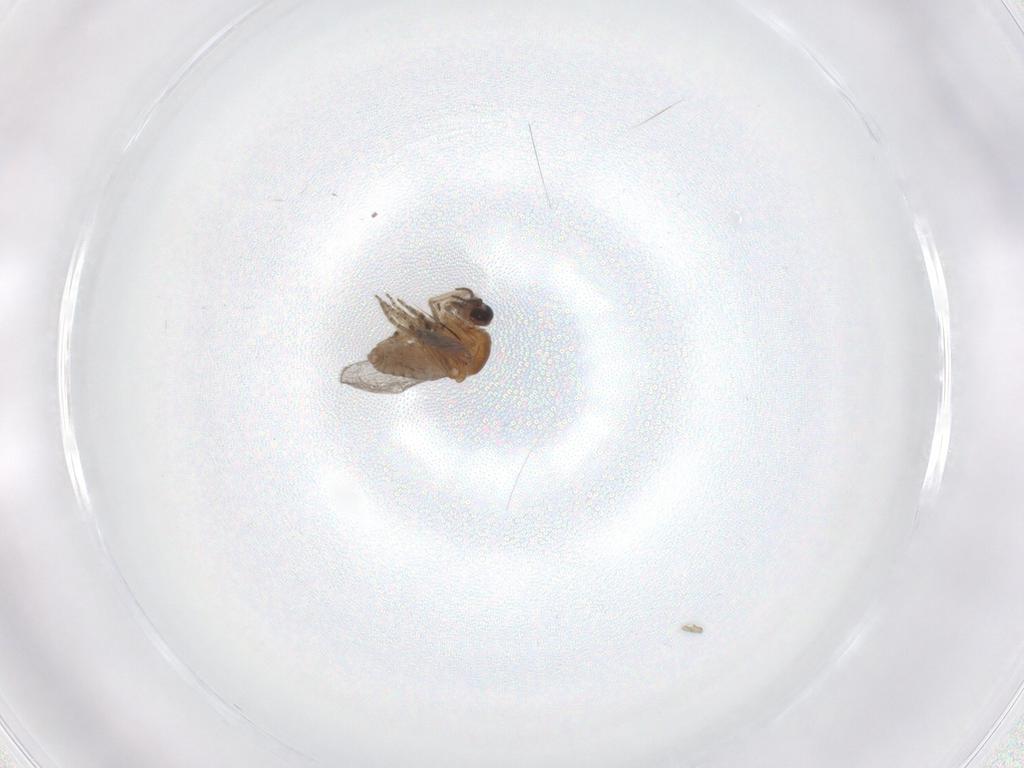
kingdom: Animalia
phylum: Arthropoda
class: Insecta
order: Diptera
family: Ceratopogonidae
